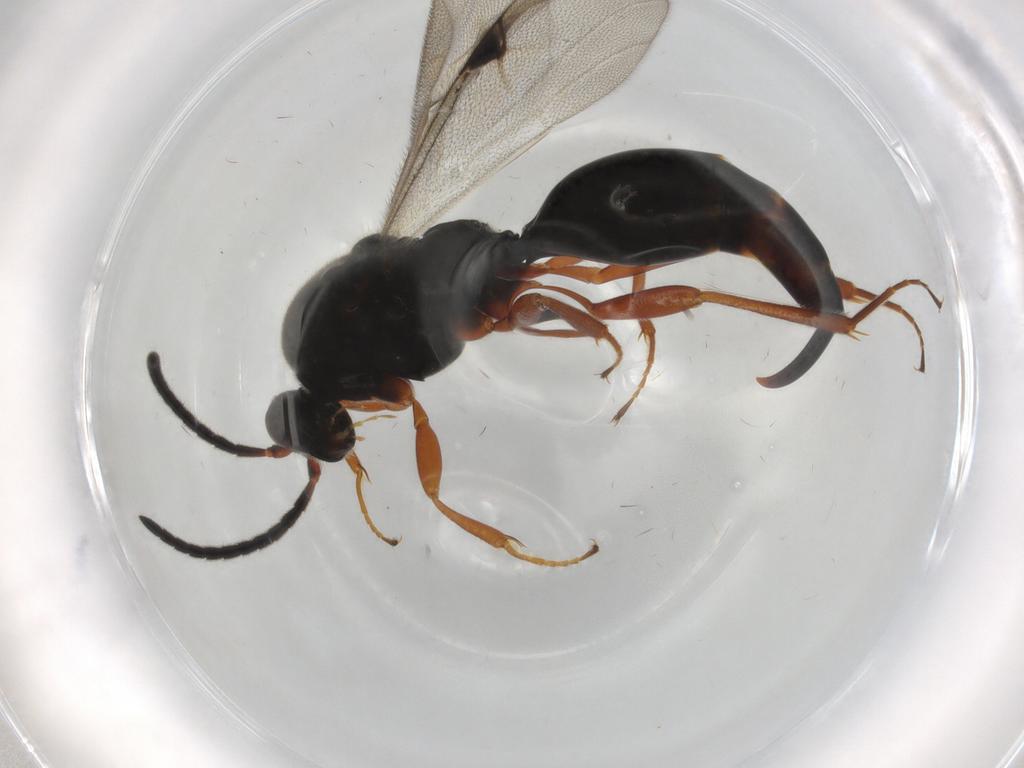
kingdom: Animalia
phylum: Arthropoda
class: Insecta
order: Hymenoptera
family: Proctotrupidae
